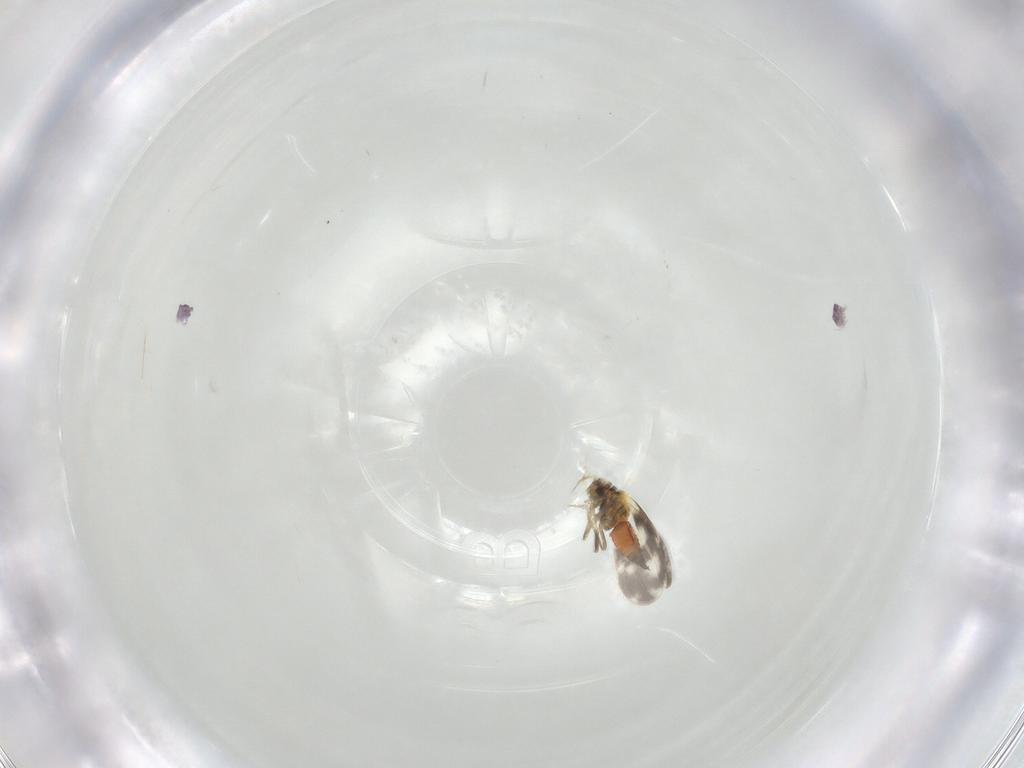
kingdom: Animalia
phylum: Arthropoda
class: Insecta
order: Hemiptera
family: Aleyrodidae
